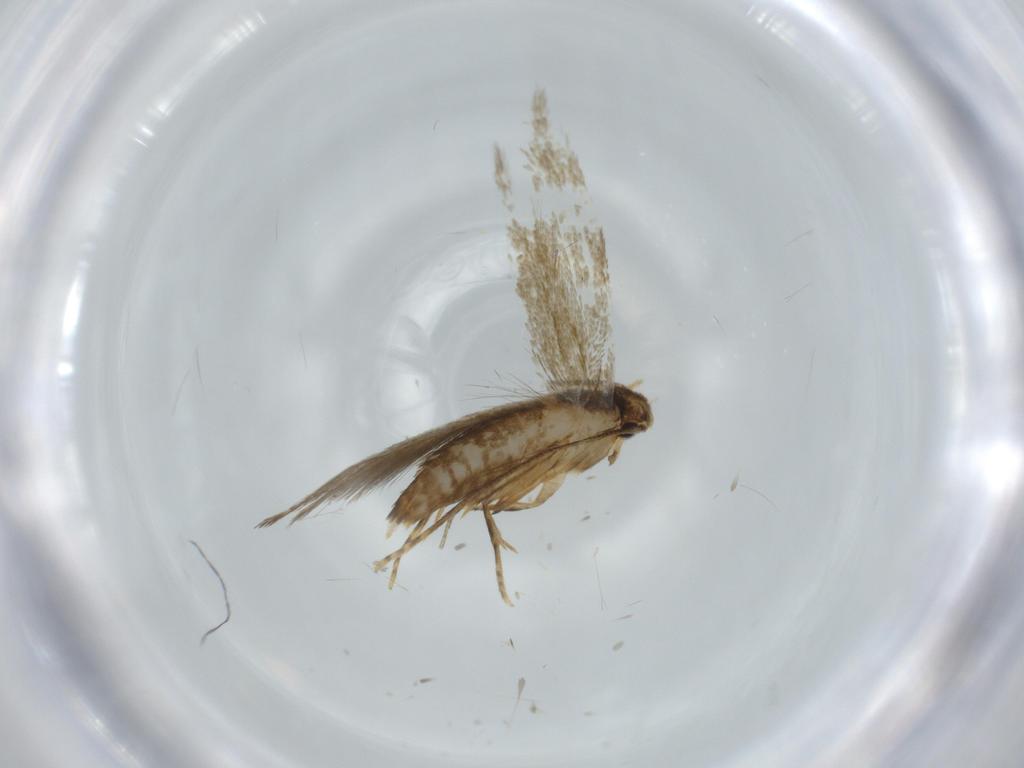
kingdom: Animalia
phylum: Arthropoda
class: Insecta
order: Lepidoptera
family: Tineidae
